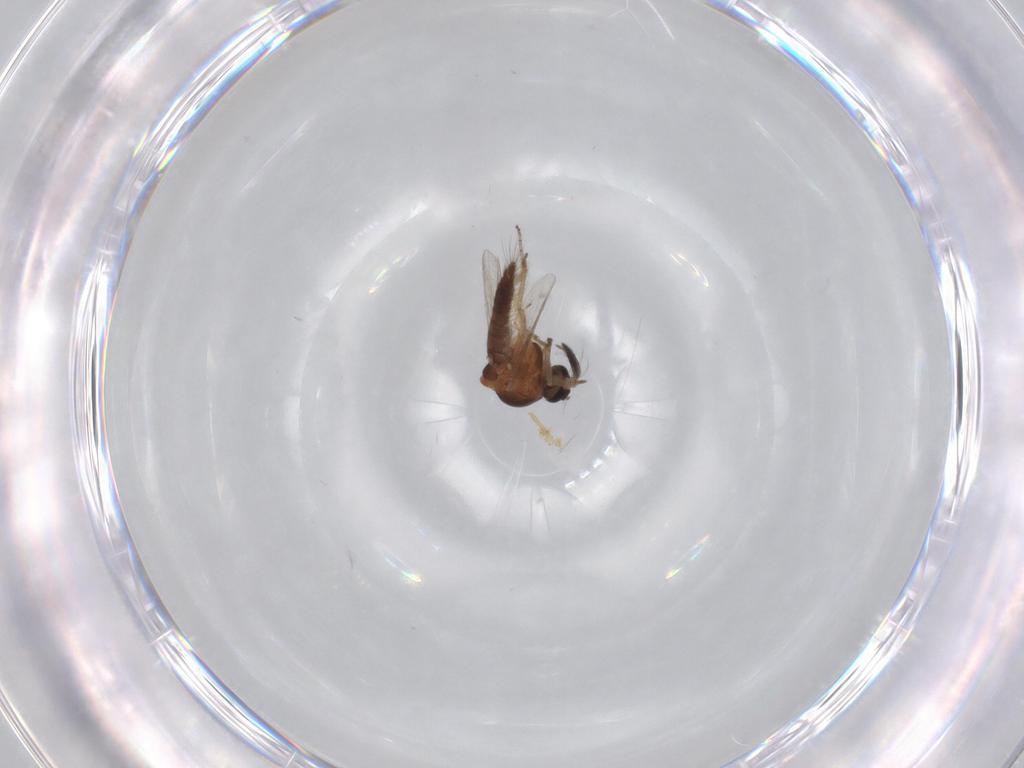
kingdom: Animalia
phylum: Arthropoda
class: Insecta
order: Diptera
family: Ceratopogonidae
